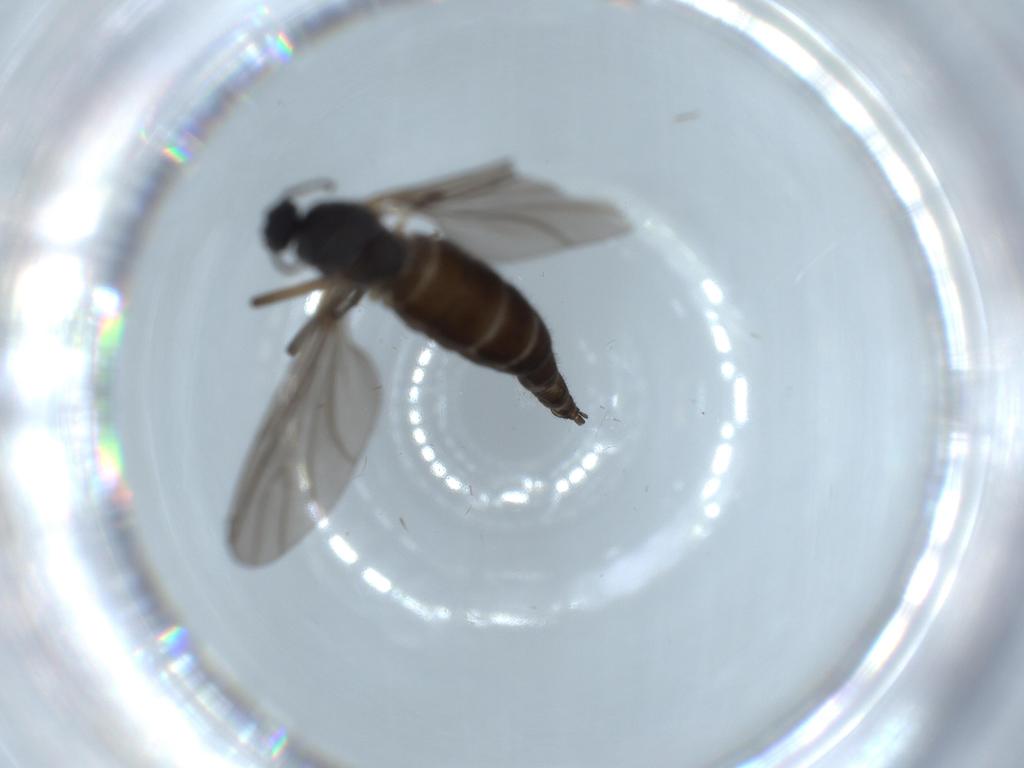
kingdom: Animalia
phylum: Arthropoda
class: Insecta
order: Diptera
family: Sciaridae
